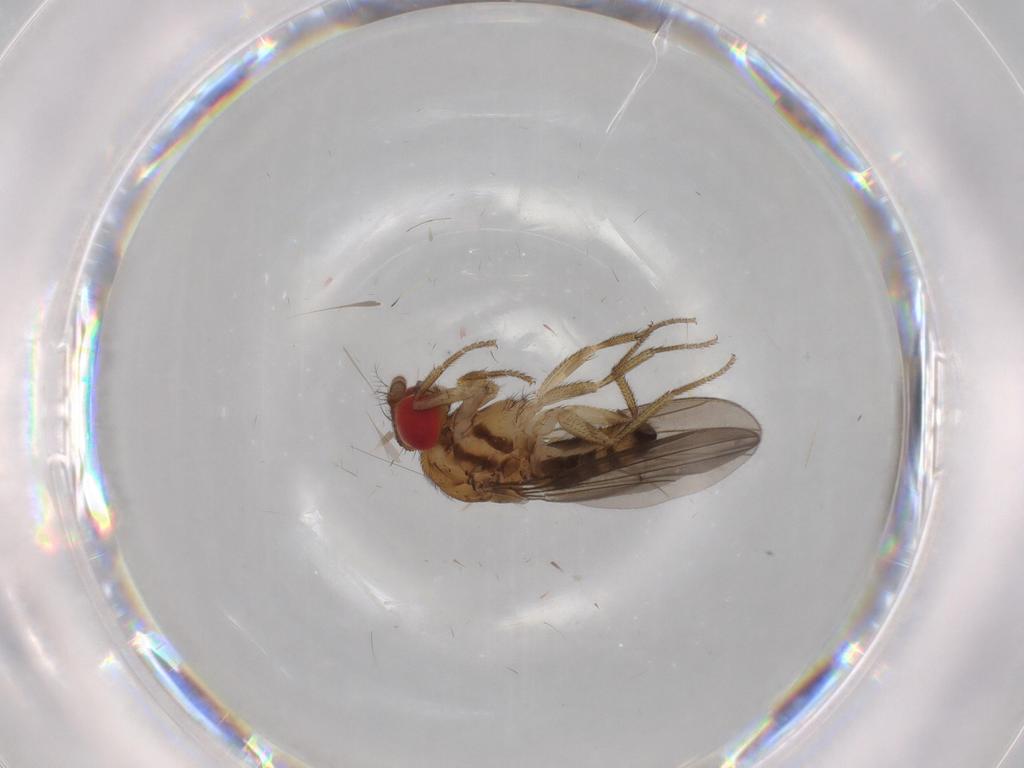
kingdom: Animalia
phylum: Arthropoda
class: Insecta
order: Diptera
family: Drosophilidae
